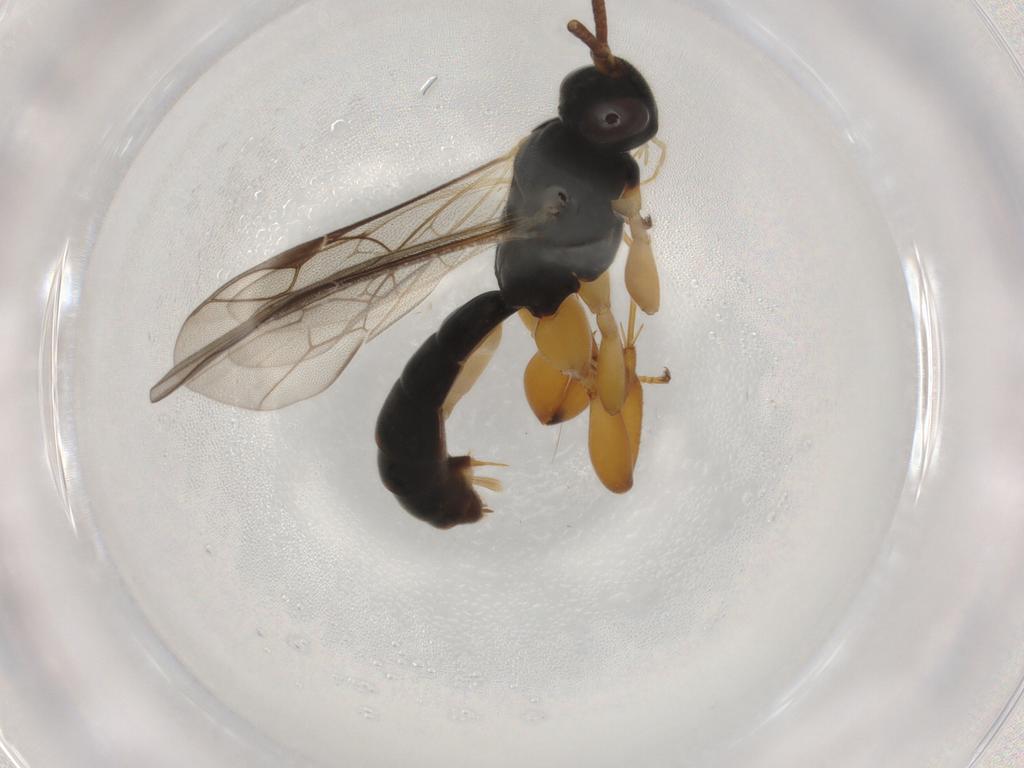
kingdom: Animalia
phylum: Arthropoda
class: Insecta
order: Hymenoptera
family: Ichneumonidae
